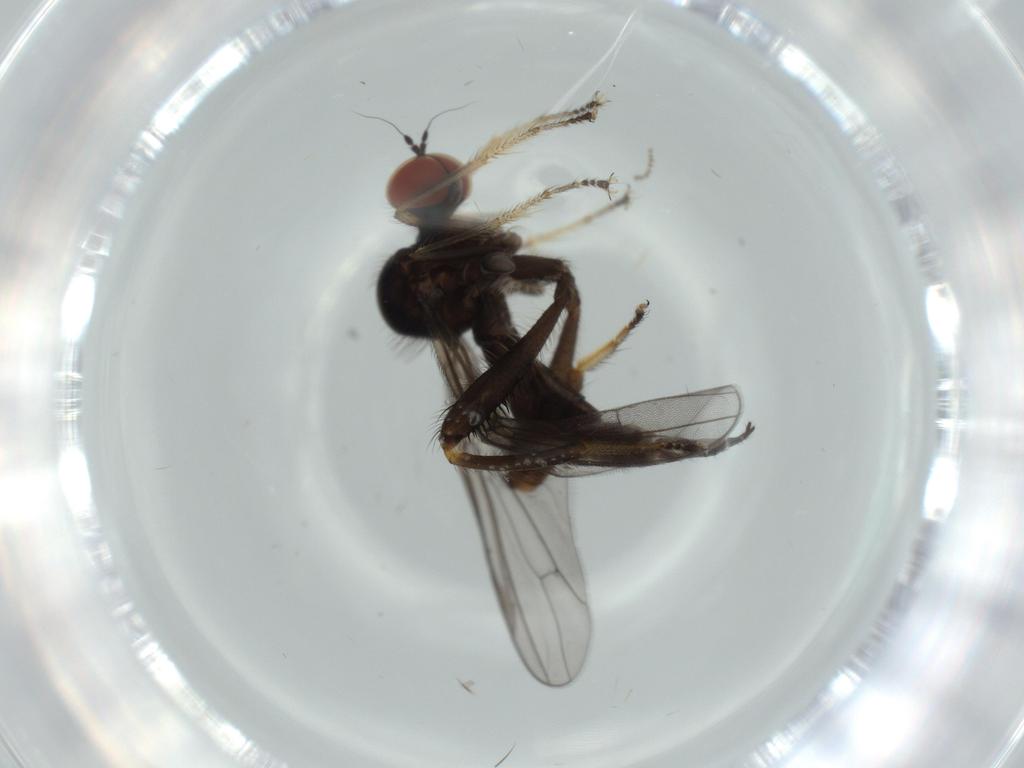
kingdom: Animalia
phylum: Arthropoda
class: Insecta
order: Diptera
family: Hybotidae
